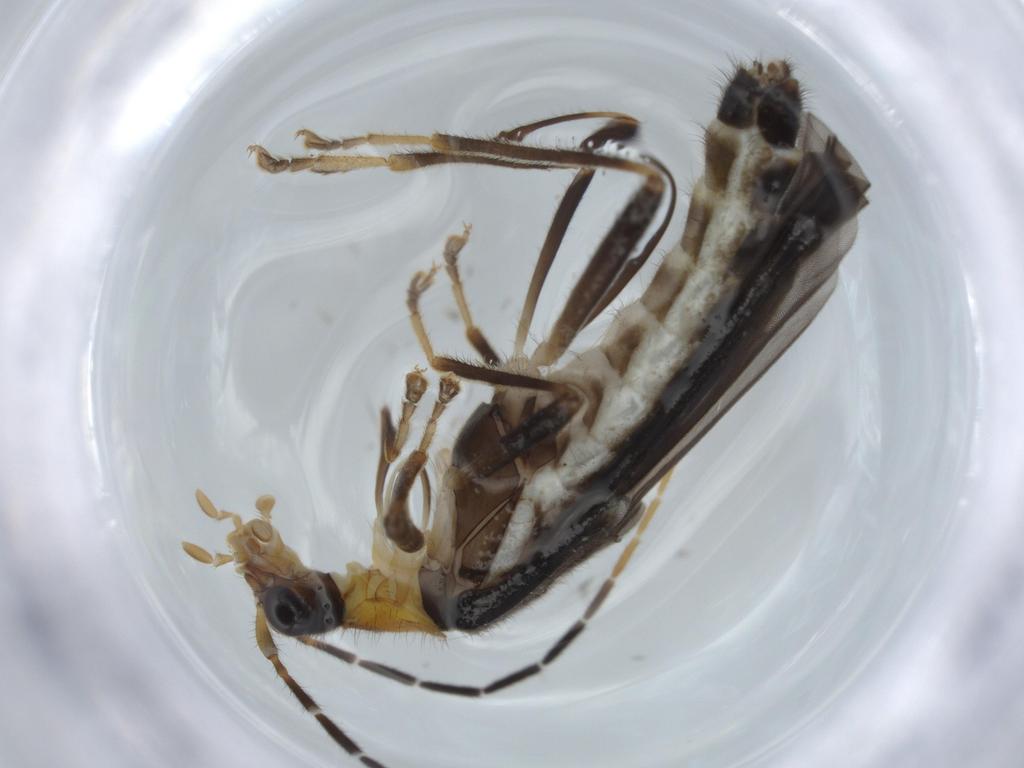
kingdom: Animalia
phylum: Arthropoda
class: Insecta
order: Coleoptera
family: Cantharidae
